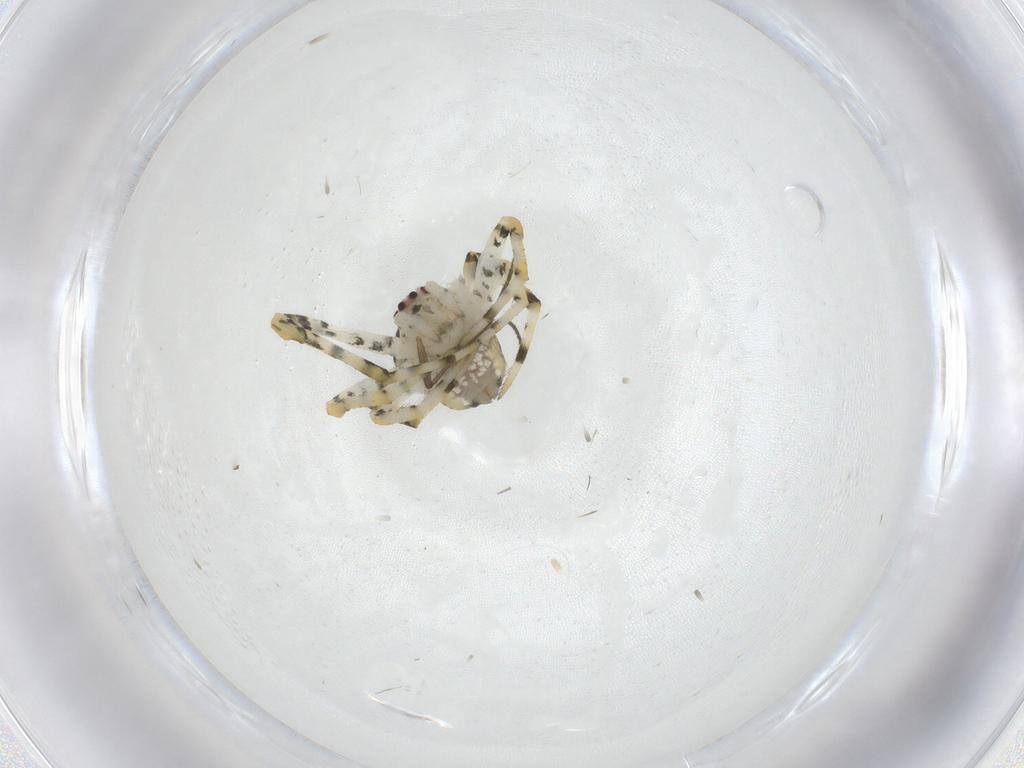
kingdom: Animalia
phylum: Arthropoda
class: Arachnida
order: Araneae
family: Theridiidae
